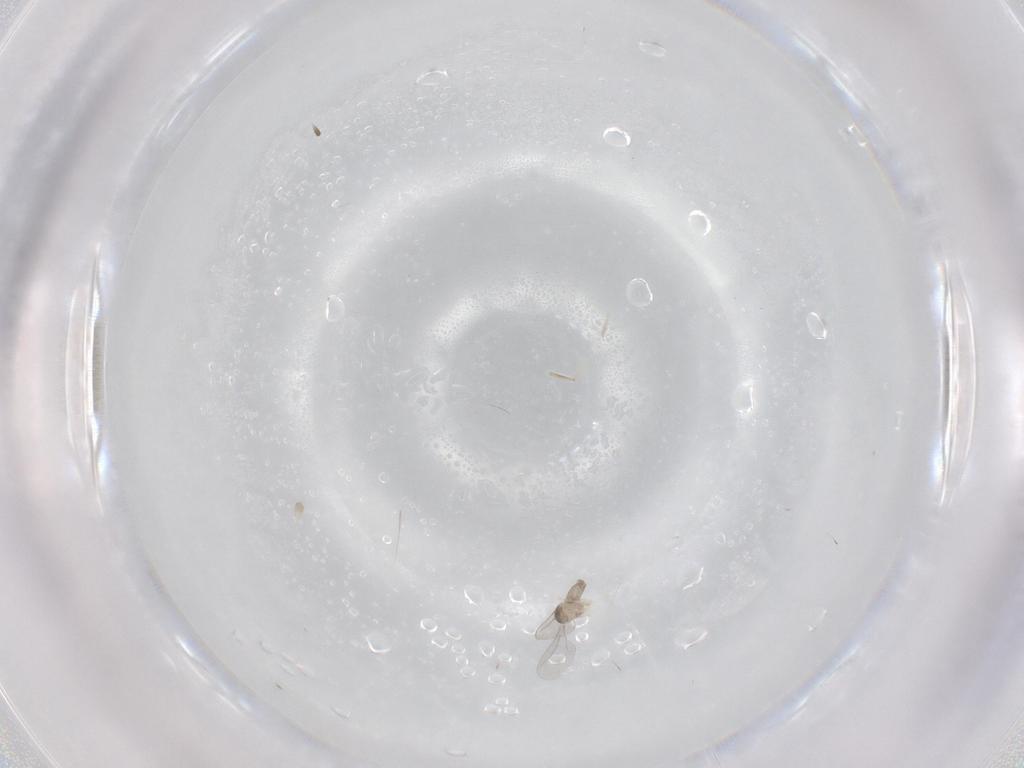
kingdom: Animalia
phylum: Arthropoda
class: Insecta
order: Diptera
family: Cecidomyiidae
